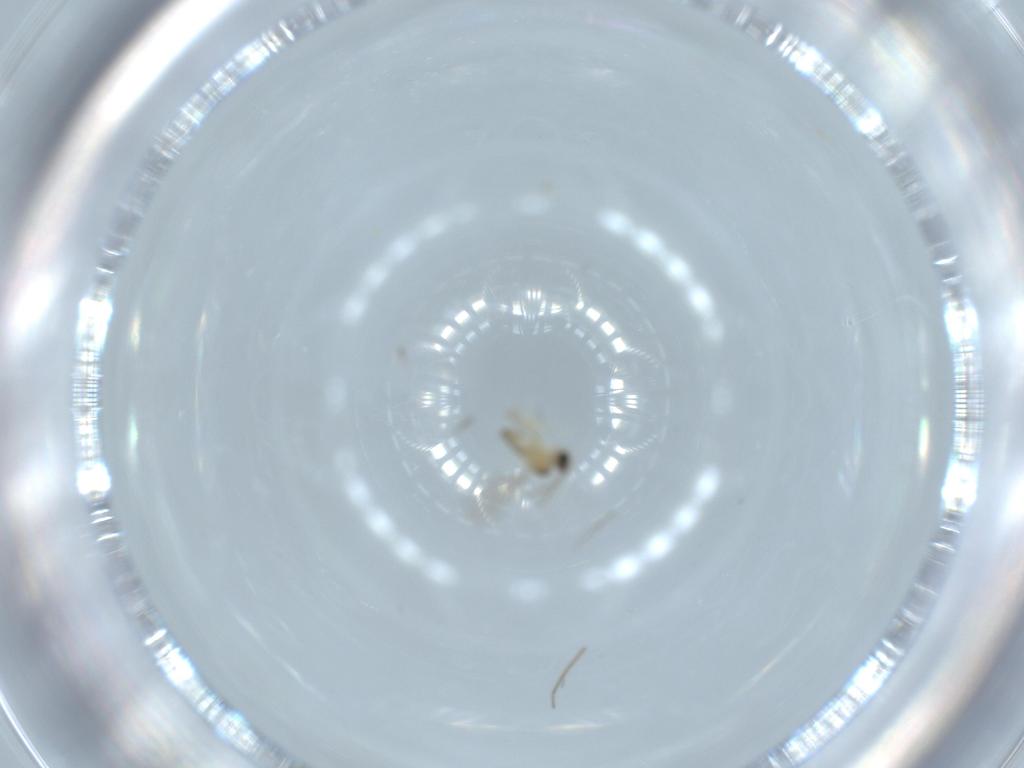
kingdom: Animalia
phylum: Arthropoda
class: Insecta
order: Diptera
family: Cecidomyiidae
